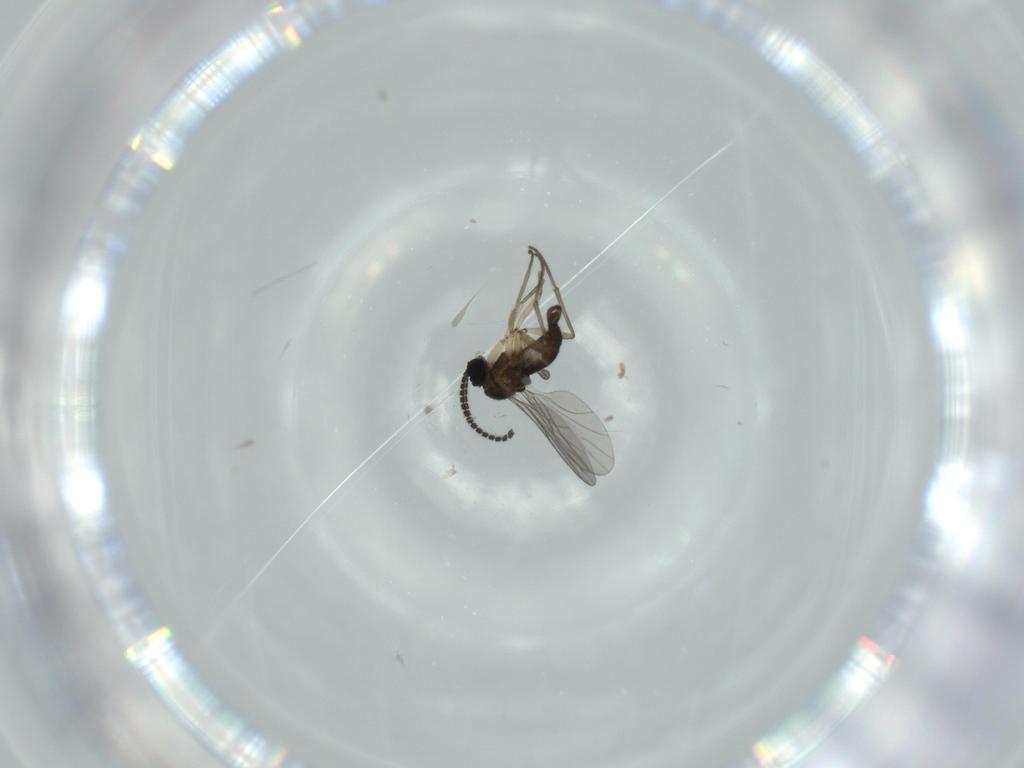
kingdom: Animalia
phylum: Arthropoda
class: Insecta
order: Diptera
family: Sciaridae
